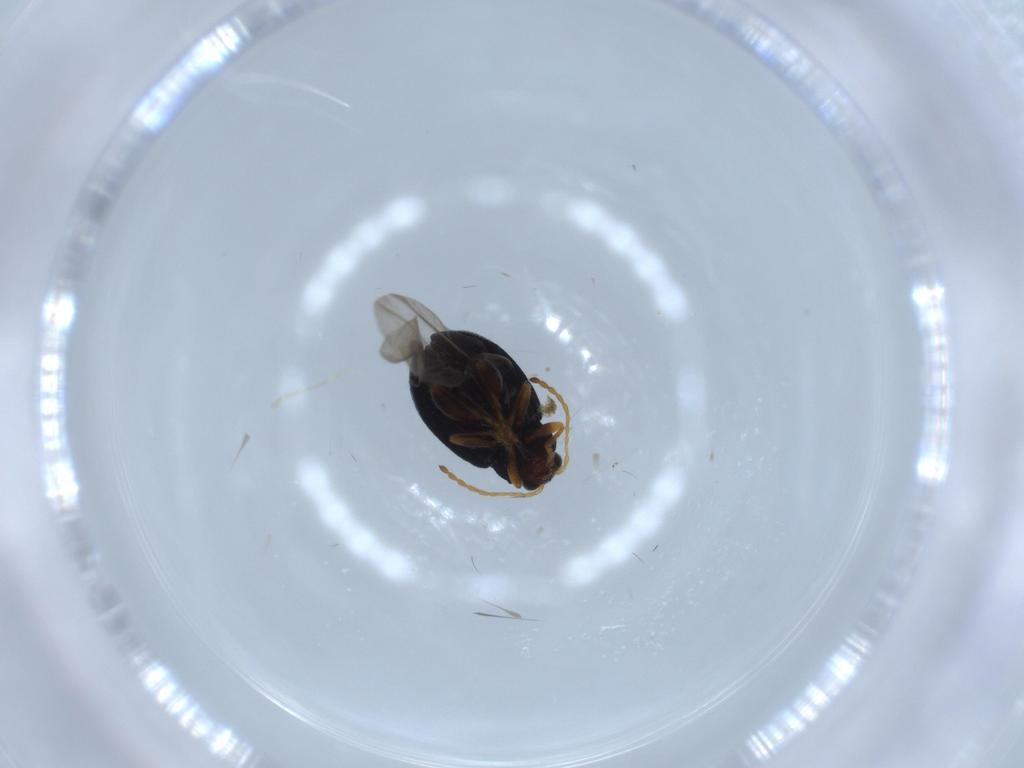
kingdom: Animalia
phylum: Arthropoda
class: Insecta
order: Coleoptera
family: Chrysomelidae
